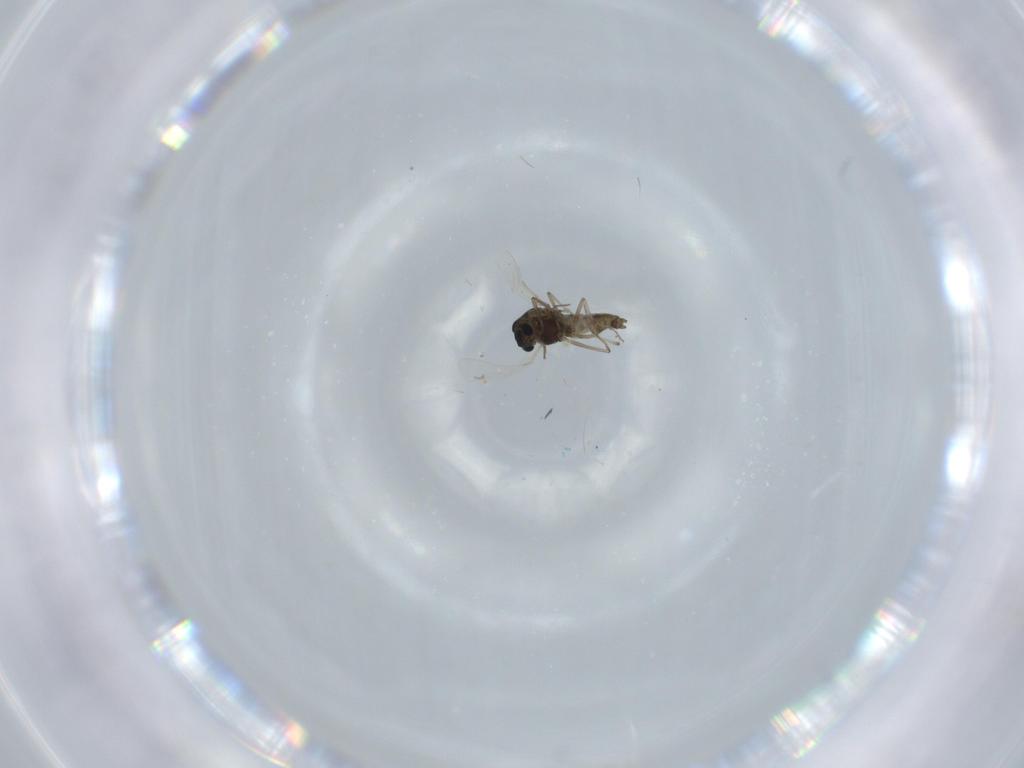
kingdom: Animalia
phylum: Arthropoda
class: Insecta
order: Diptera
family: Chironomidae
